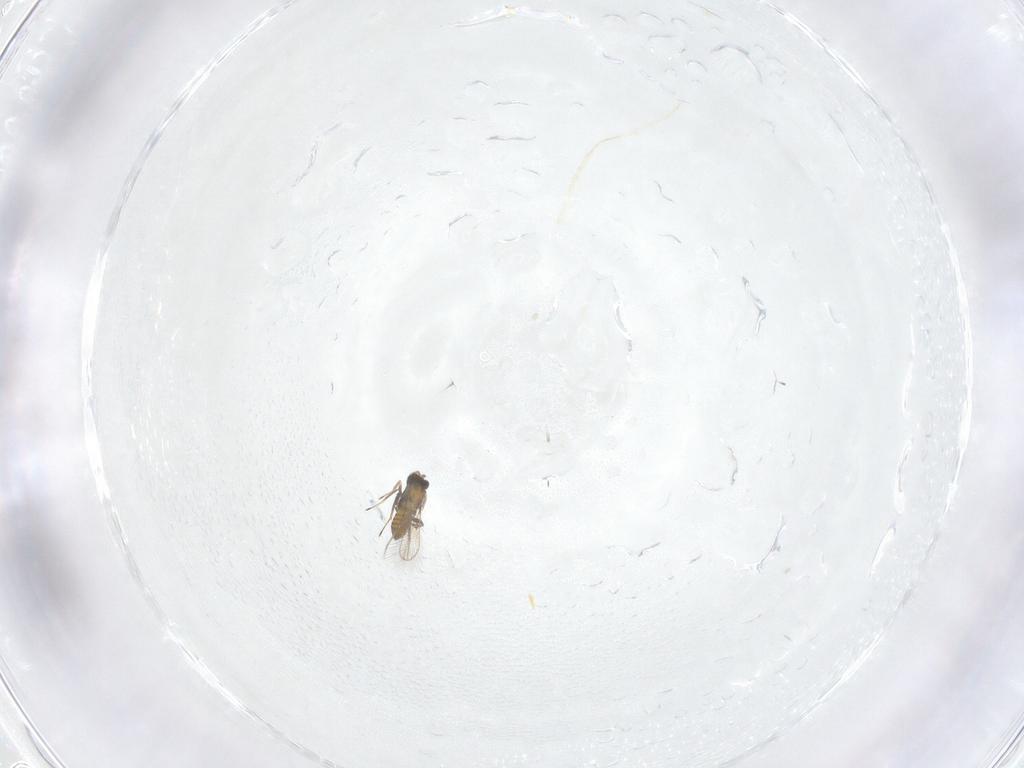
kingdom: Animalia
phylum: Arthropoda
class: Insecta
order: Hymenoptera
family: Trichogrammatidae
